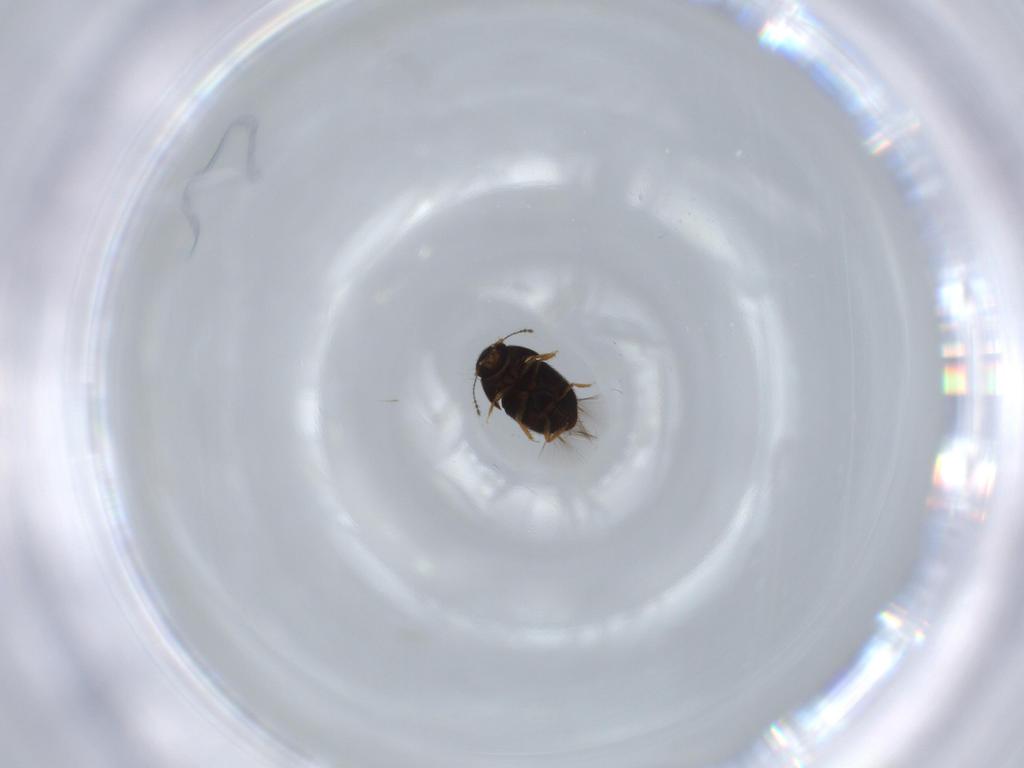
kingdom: Animalia
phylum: Arthropoda
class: Insecta
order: Coleoptera
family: Ptiliidae
